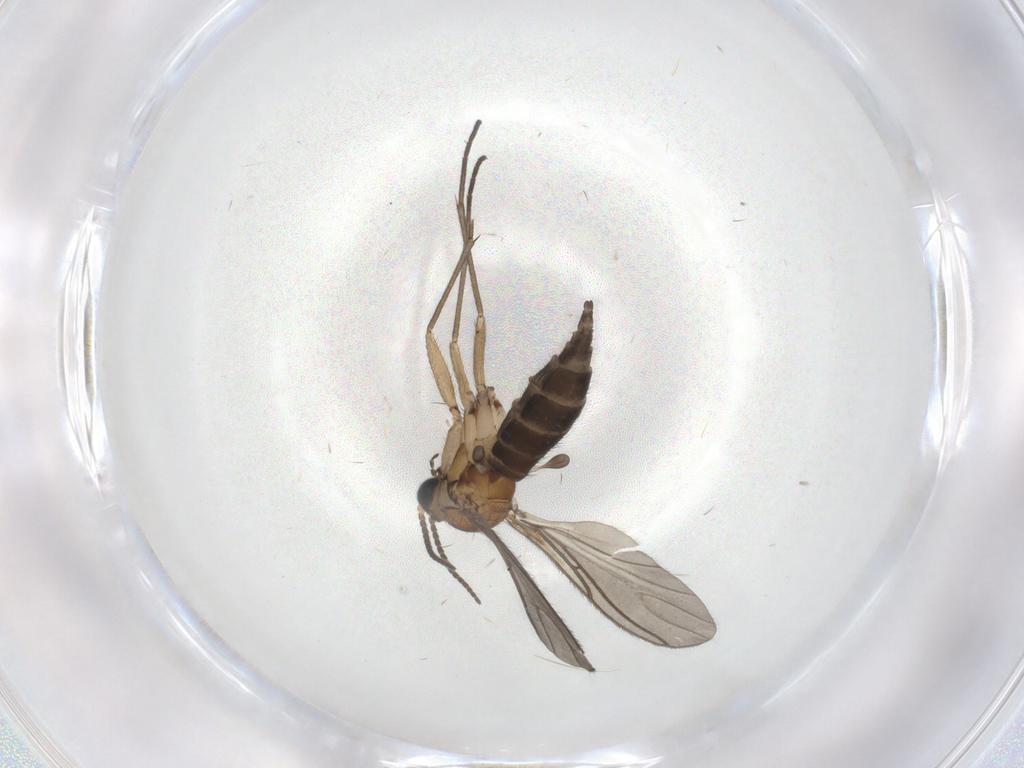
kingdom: Animalia
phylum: Arthropoda
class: Insecta
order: Diptera
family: Sciaridae
